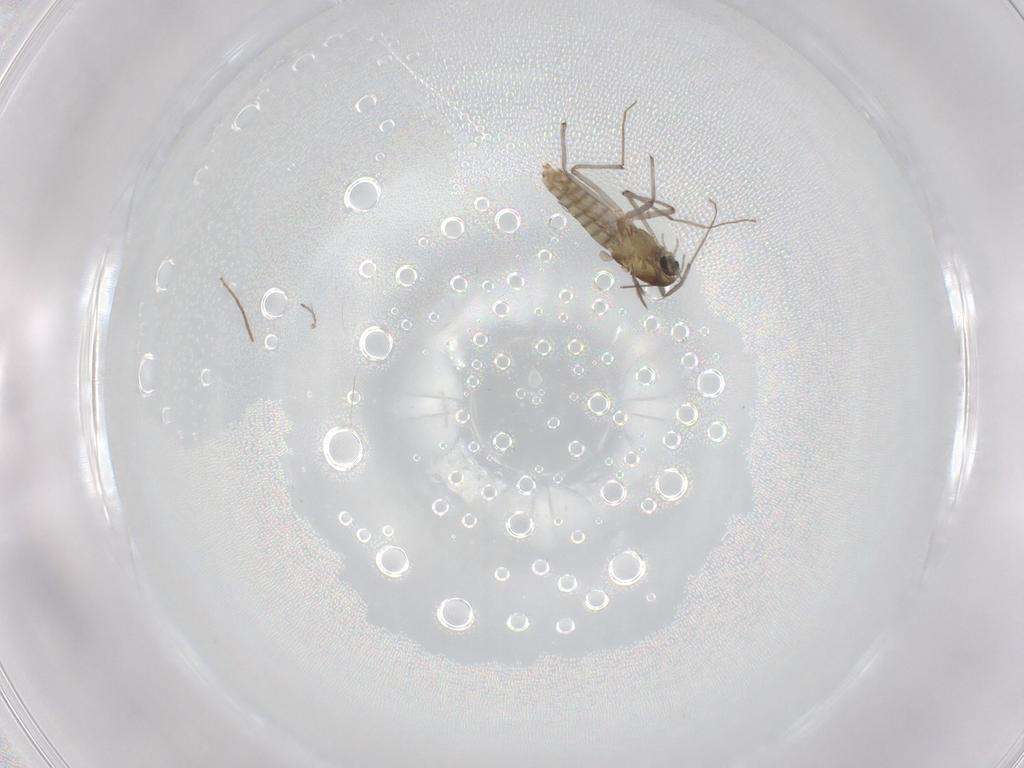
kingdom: Animalia
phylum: Arthropoda
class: Insecta
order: Diptera
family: Chironomidae
